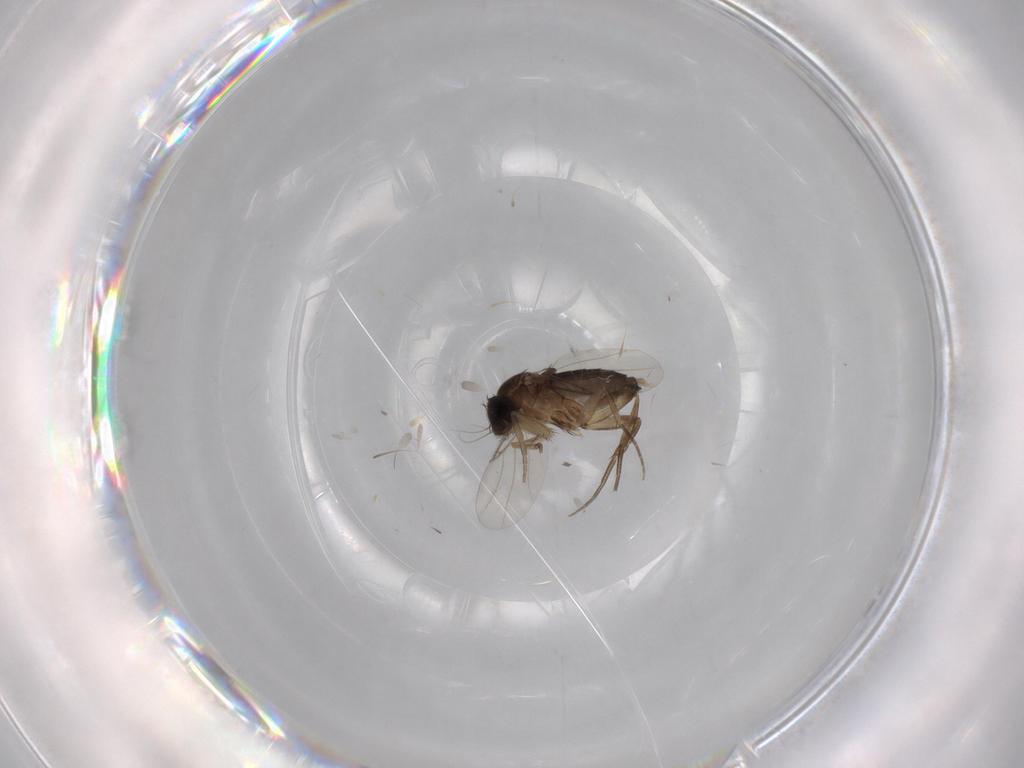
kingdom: Animalia
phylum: Arthropoda
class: Insecta
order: Diptera
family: Phoridae
